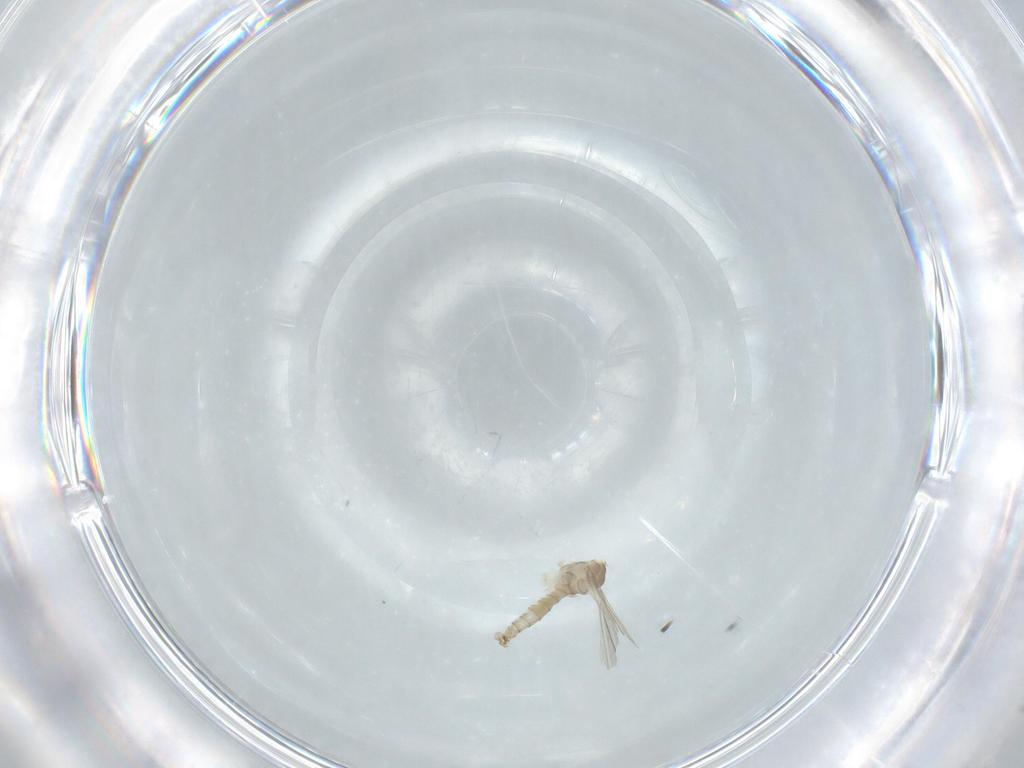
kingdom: Animalia
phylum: Arthropoda
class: Insecta
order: Diptera
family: Cecidomyiidae
